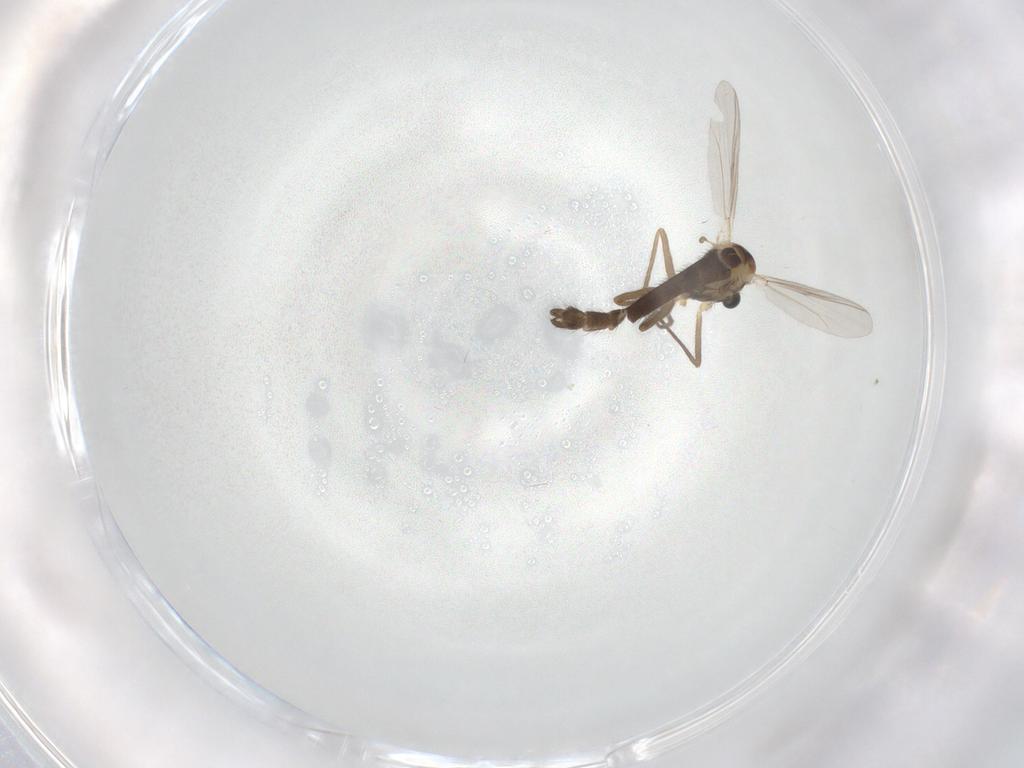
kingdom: Animalia
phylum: Arthropoda
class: Insecta
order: Diptera
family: Chironomidae
